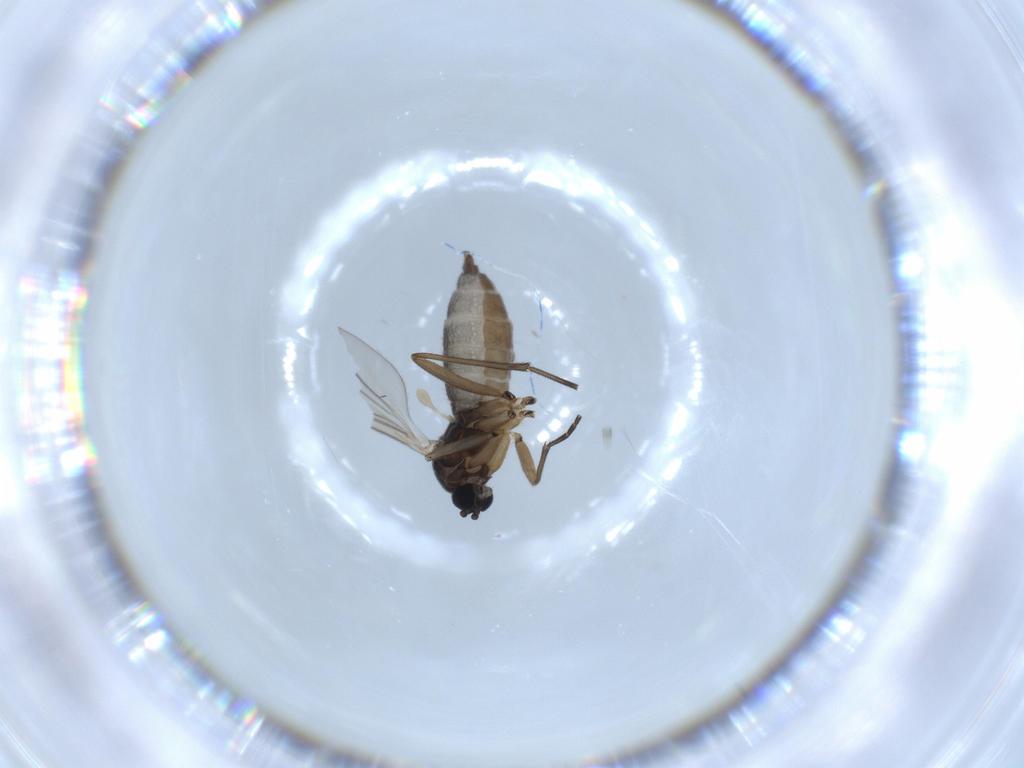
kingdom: Animalia
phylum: Arthropoda
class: Insecta
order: Diptera
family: Sciaridae
